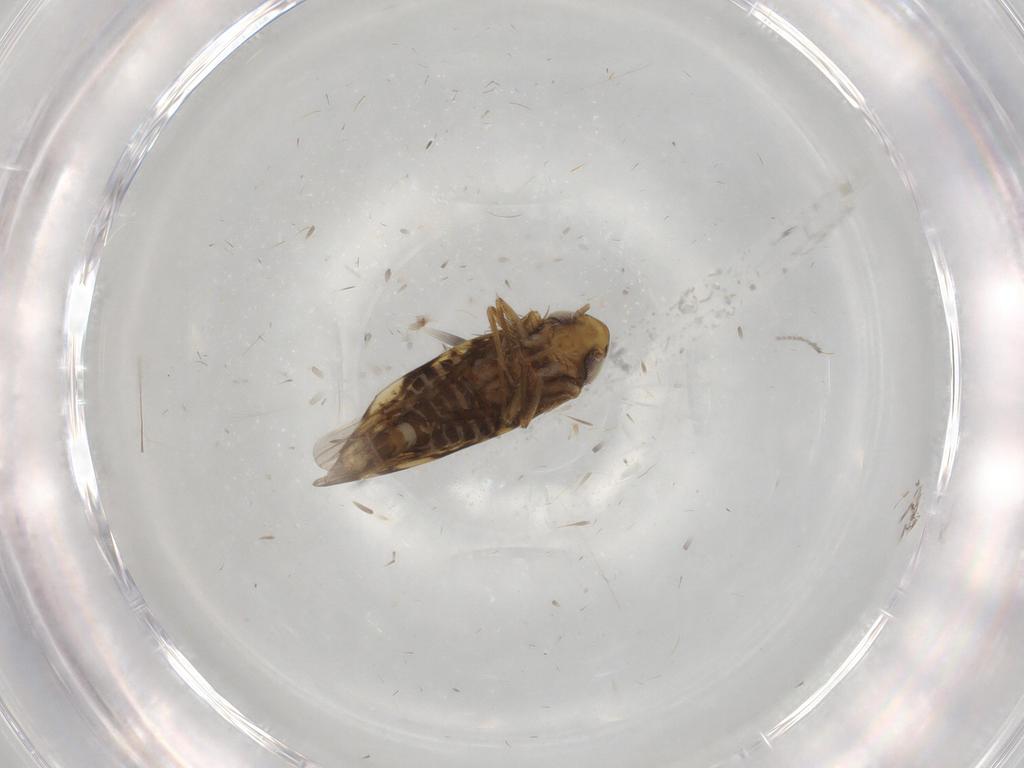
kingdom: Animalia
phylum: Arthropoda
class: Insecta
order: Hemiptera
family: Cicadellidae
